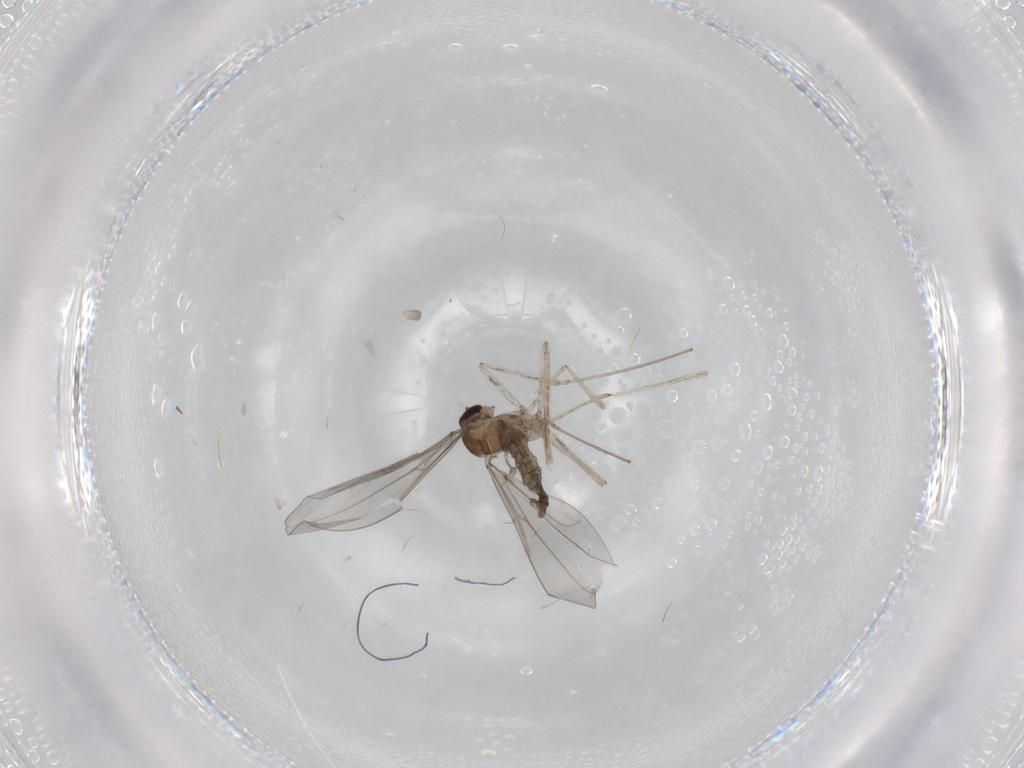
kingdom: Animalia
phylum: Arthropoda
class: Insecta
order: Diptera
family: Cecidomyiidae
